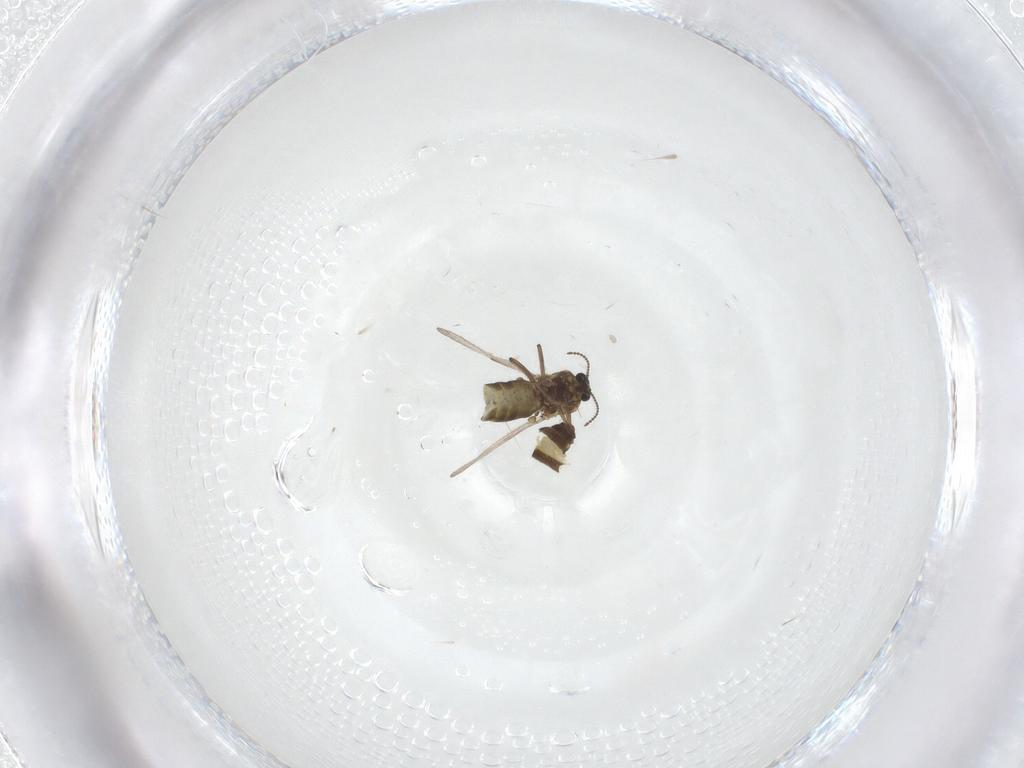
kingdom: Animalia
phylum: Arthropoda
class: Insecta
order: Diptera
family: Ceratopogonidae
